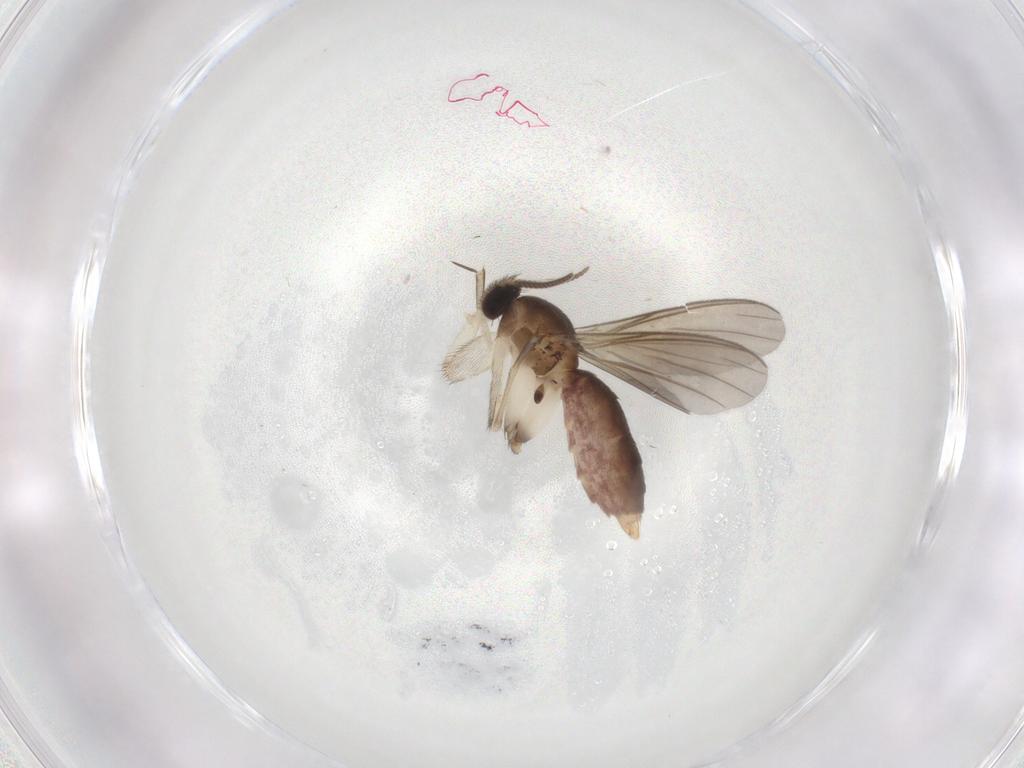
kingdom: Animalia
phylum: Arthropoda
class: Insecta
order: Diptera
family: Mycetophilidae
